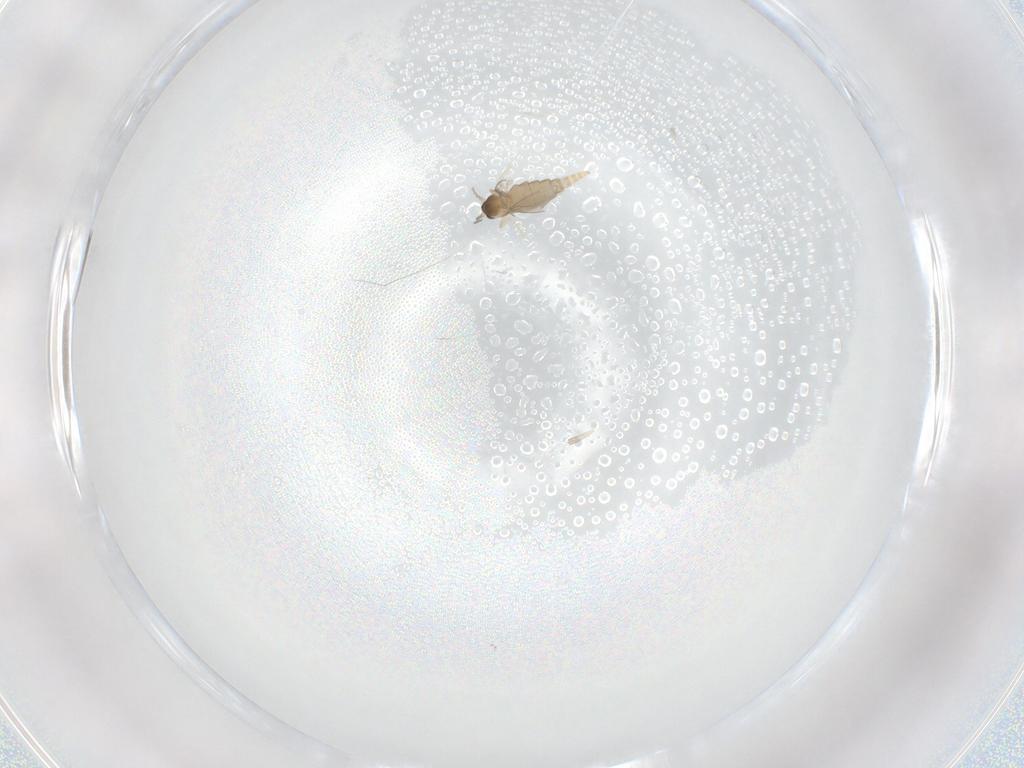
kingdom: Animalia
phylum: Arthropoda
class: Insecta
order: Diptera
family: Cecidomyiidae
